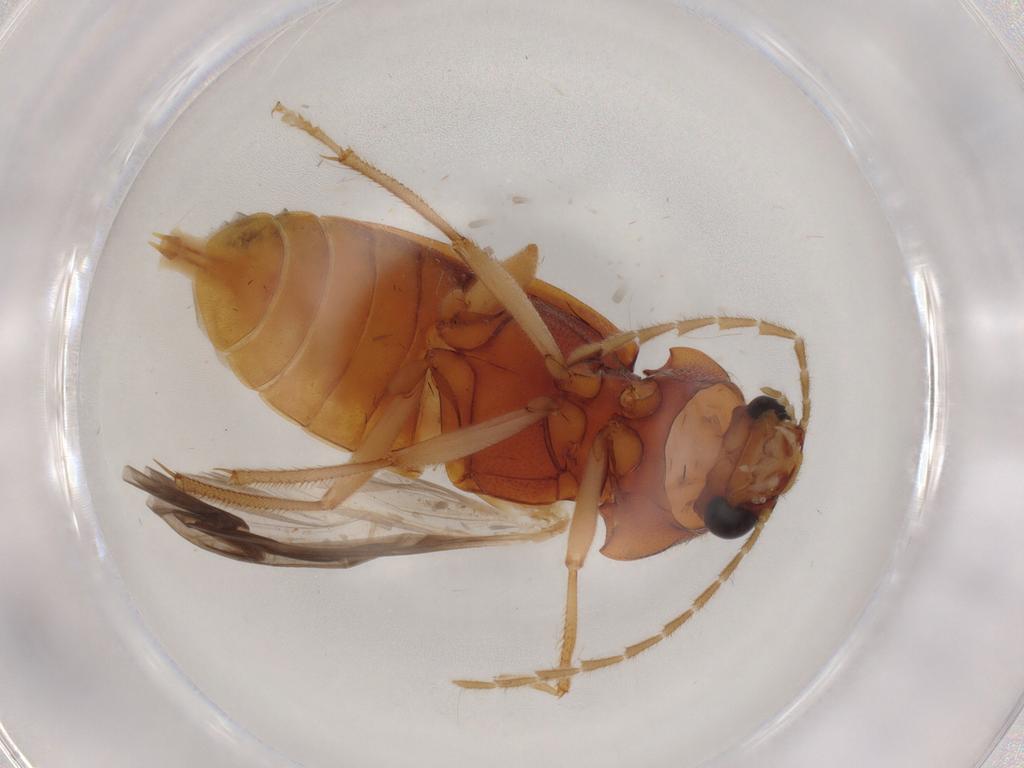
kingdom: Animalia
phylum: Arthropoda
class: Insecta
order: Coleoptera
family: Ptilodactylidae
